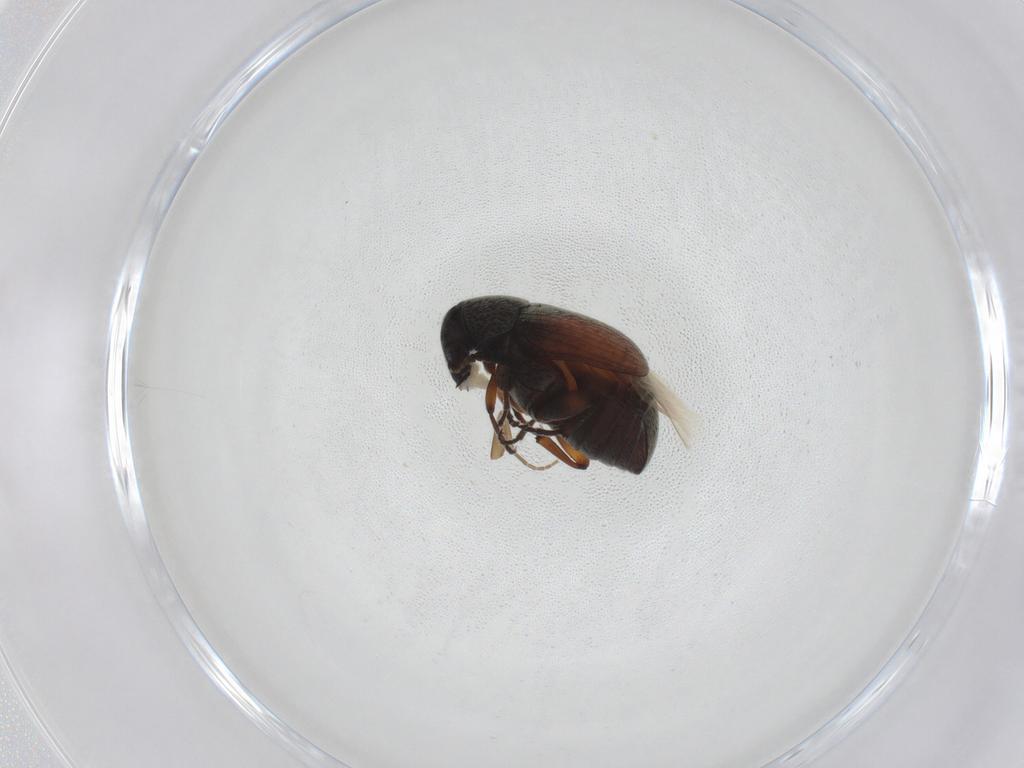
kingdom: Animalia
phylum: Arthropoda
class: Insecta
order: Coleoptera
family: Chrysomelidae
